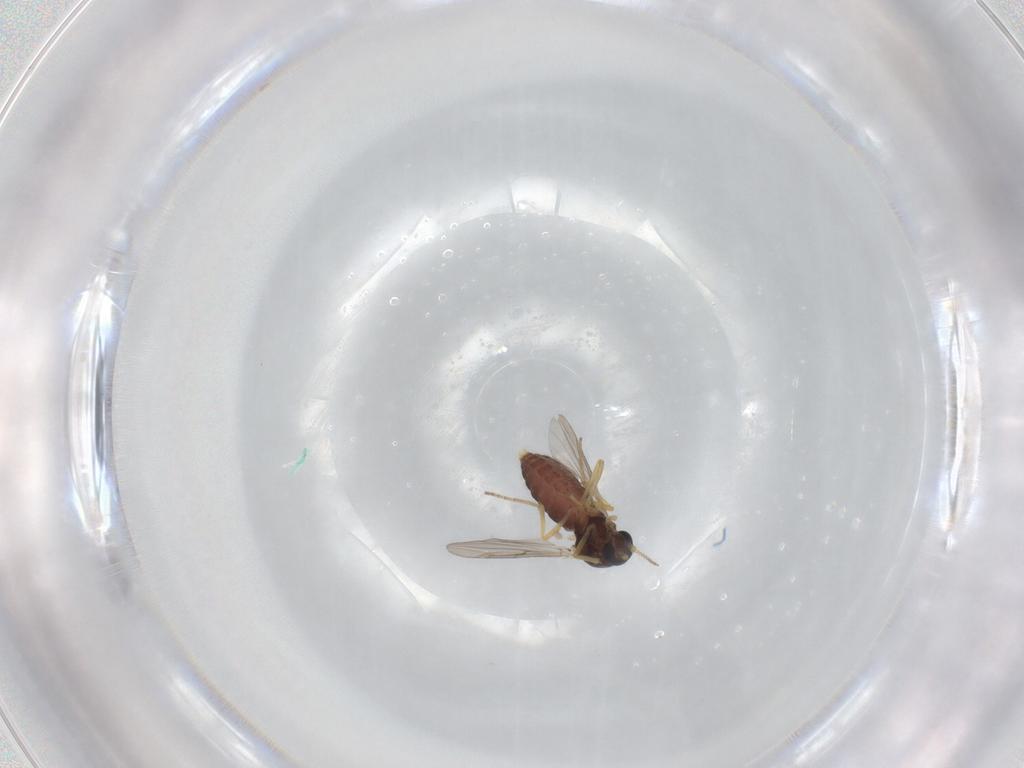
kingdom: Animalia
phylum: Arthropoda
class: Insecta
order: Diptera
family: Ceratopogonidae
